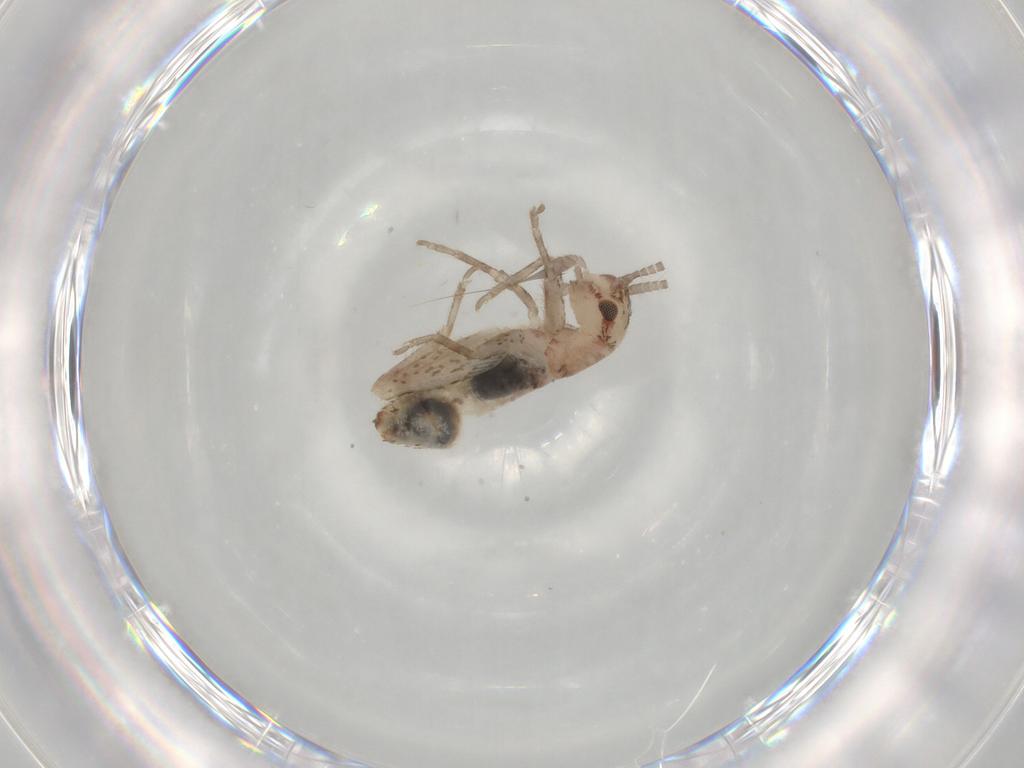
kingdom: Animalia
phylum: Arthropoda
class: Insecta
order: Orthoptera
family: Mogoplistidae
